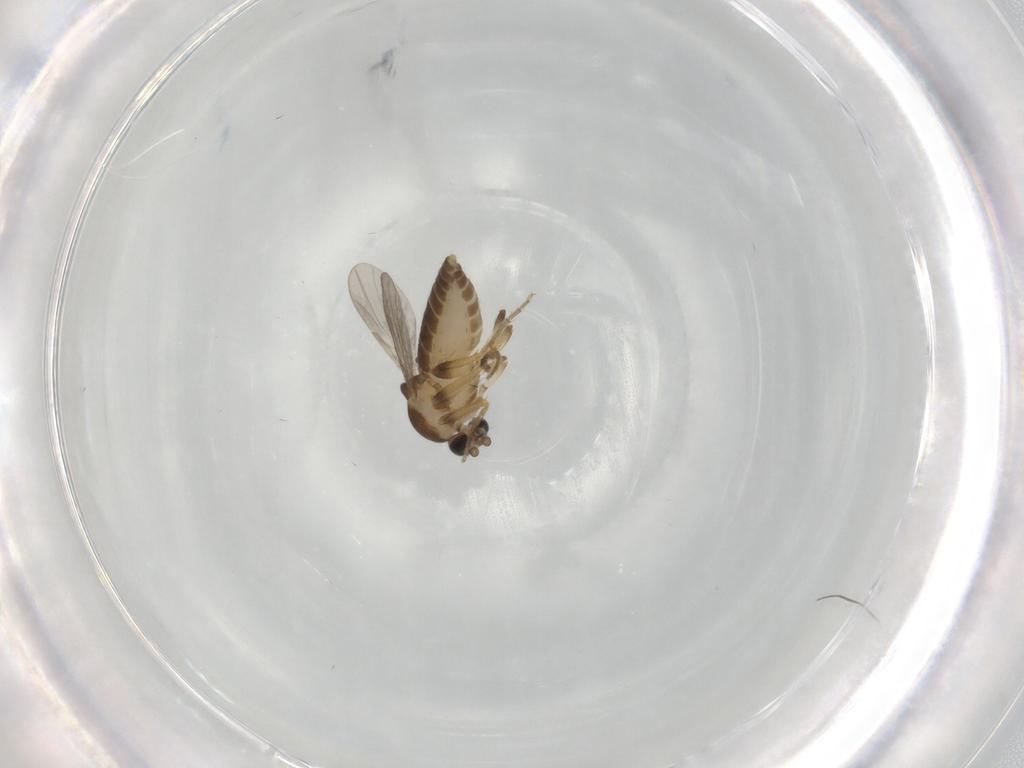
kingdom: Animalia
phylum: Arthropoda
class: Insecta
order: Diptera
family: Ceratopogonidae
